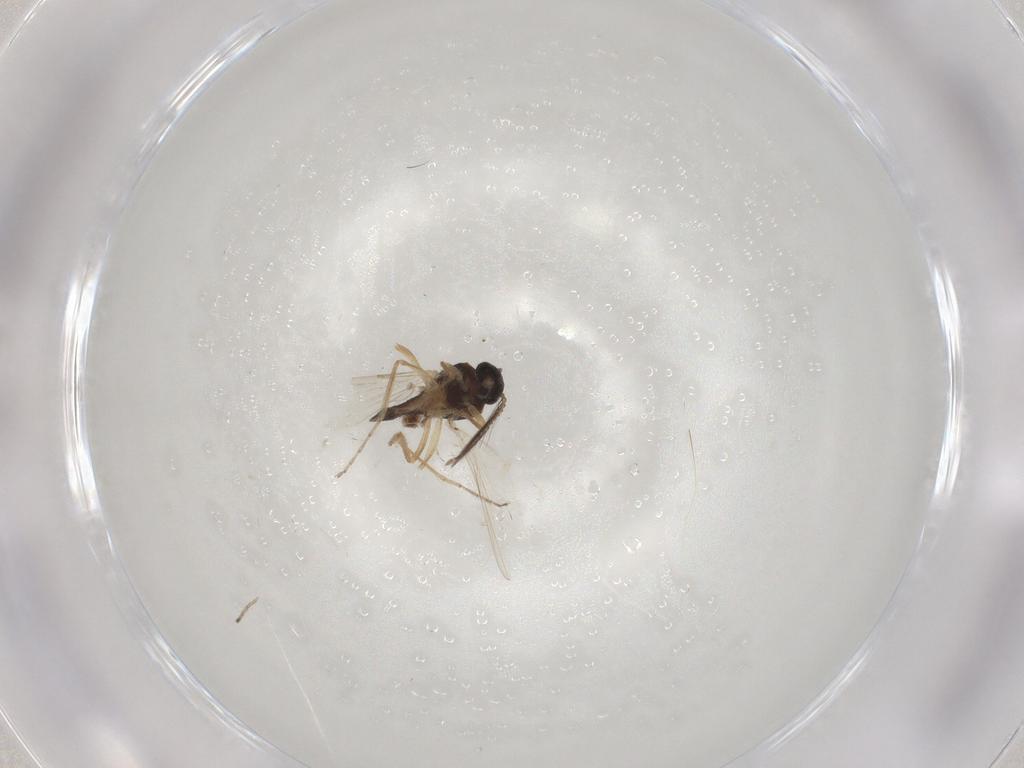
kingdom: Animalia
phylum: Arthropoda
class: Insecta
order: Diptera
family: Ceratopogonidae
